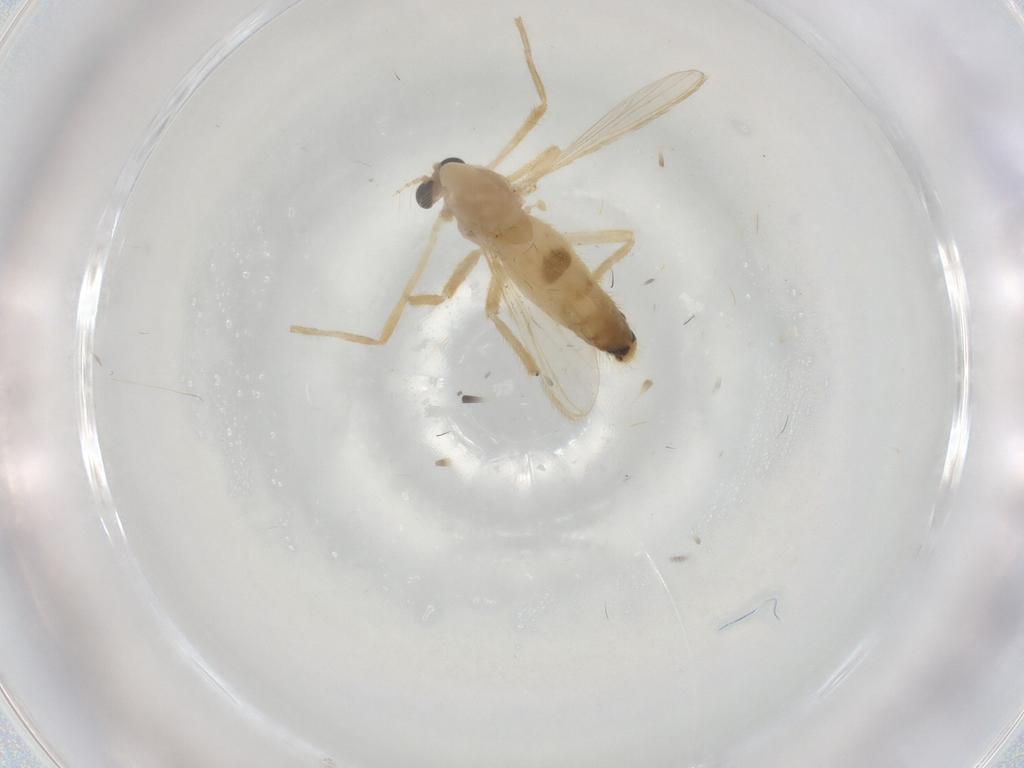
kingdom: Animalia
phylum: Arthropoda
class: Insecta
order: Diptera
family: Chironomidae
